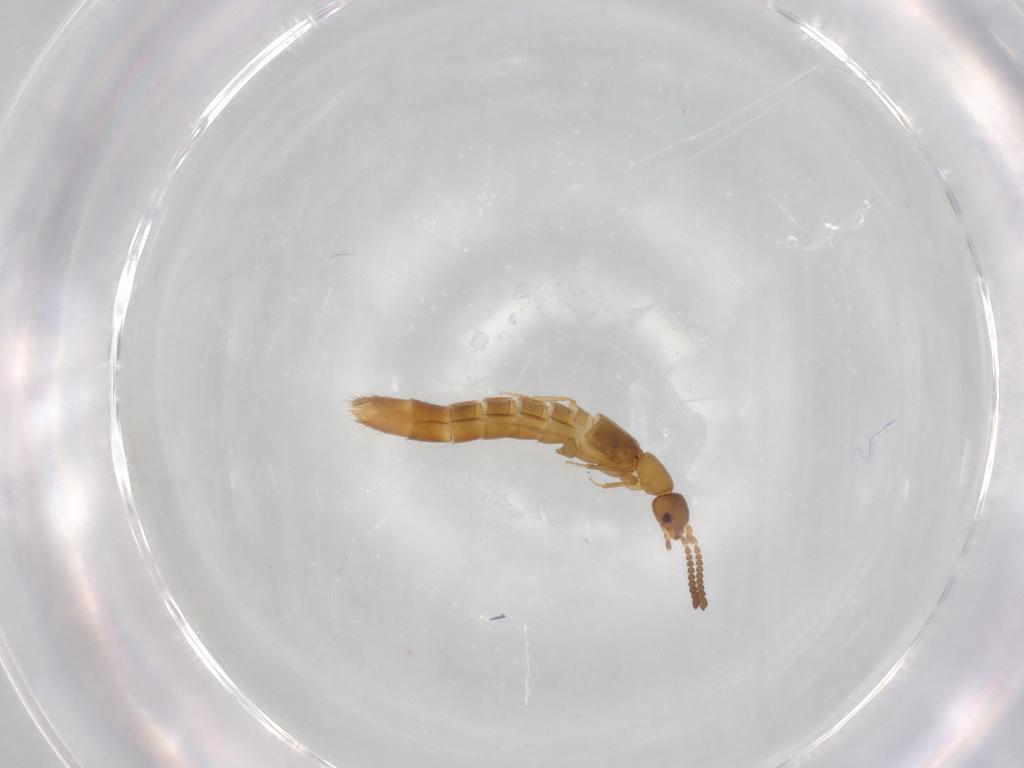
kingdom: Animalia
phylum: Arthropoda
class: Insecta
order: Coleoptera
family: Staphylinidae
